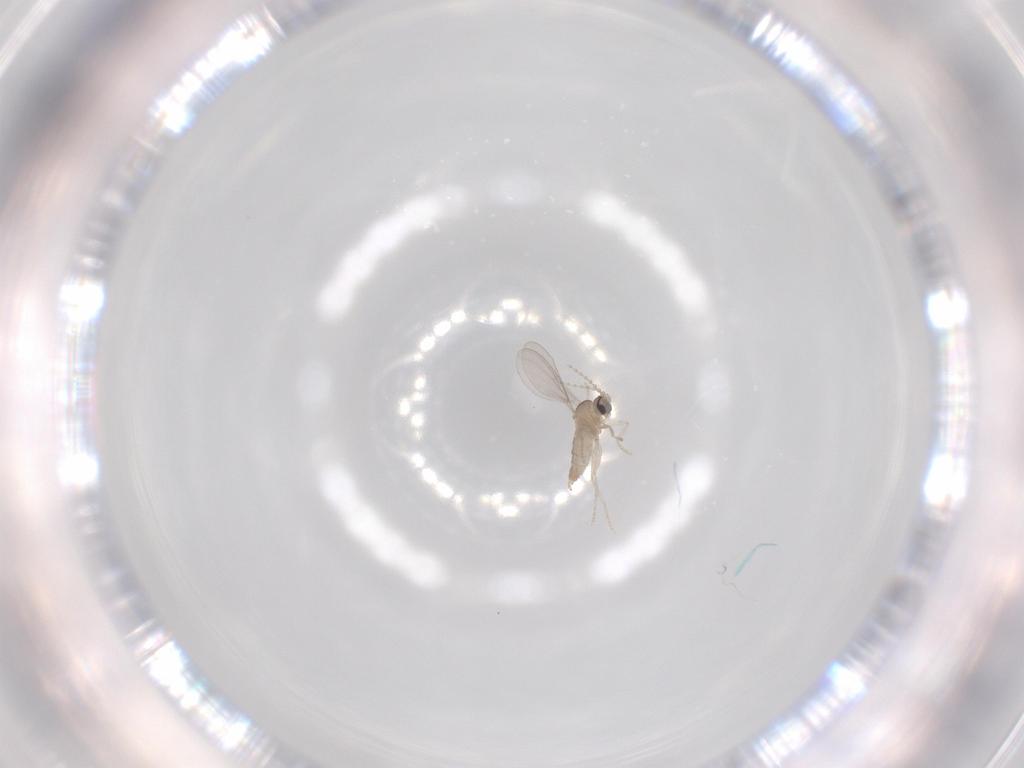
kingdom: Animalia
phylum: Arthropoda
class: Insecta
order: Diptera
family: Cecidomyiidae
